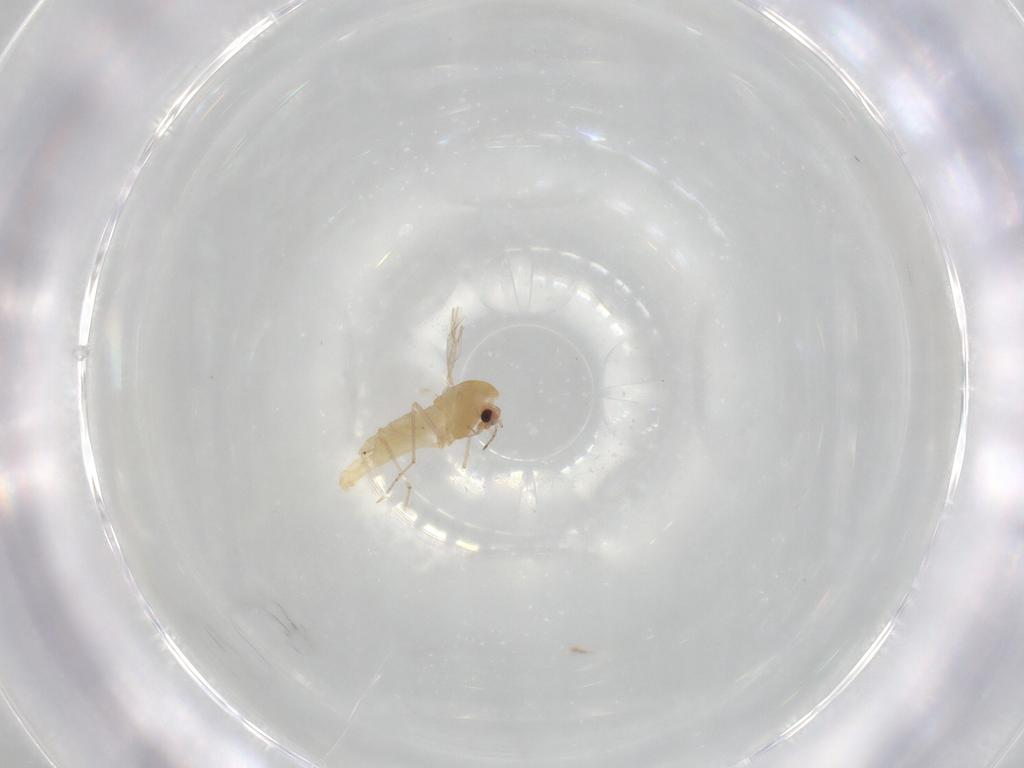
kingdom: Animalia
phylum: Arthropoda
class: Insecta
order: Diptera
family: Chironomidae
